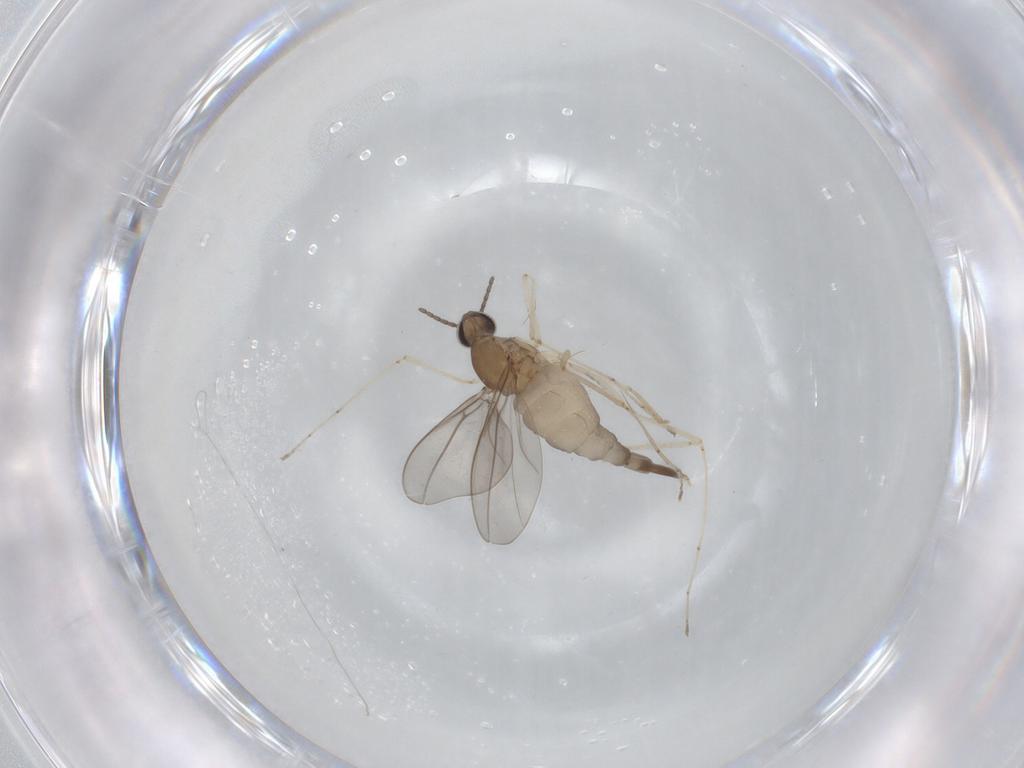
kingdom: Animalia
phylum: Arthropoda
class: Insecta
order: Diptera
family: Cecidomyiidae
